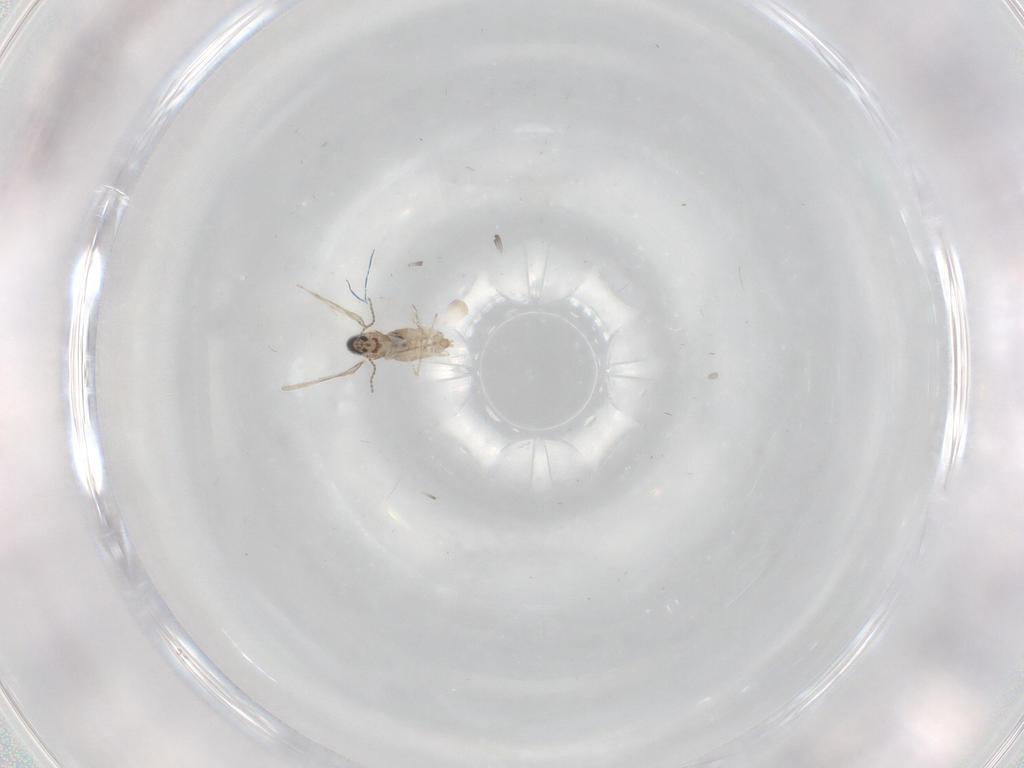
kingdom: Animalia
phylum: Arthropoda
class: Insecta
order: Diptera
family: Cecidomyiidae
